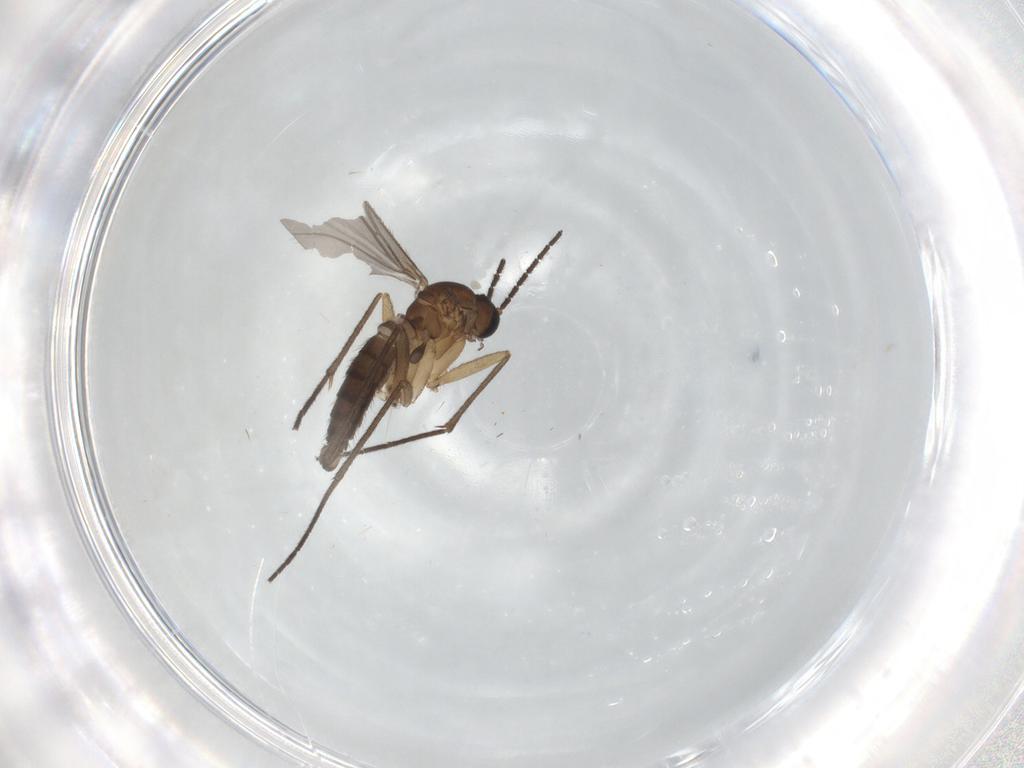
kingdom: Animalia
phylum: Arthropoda
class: Insecta
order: Diptera
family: Sciaridae
